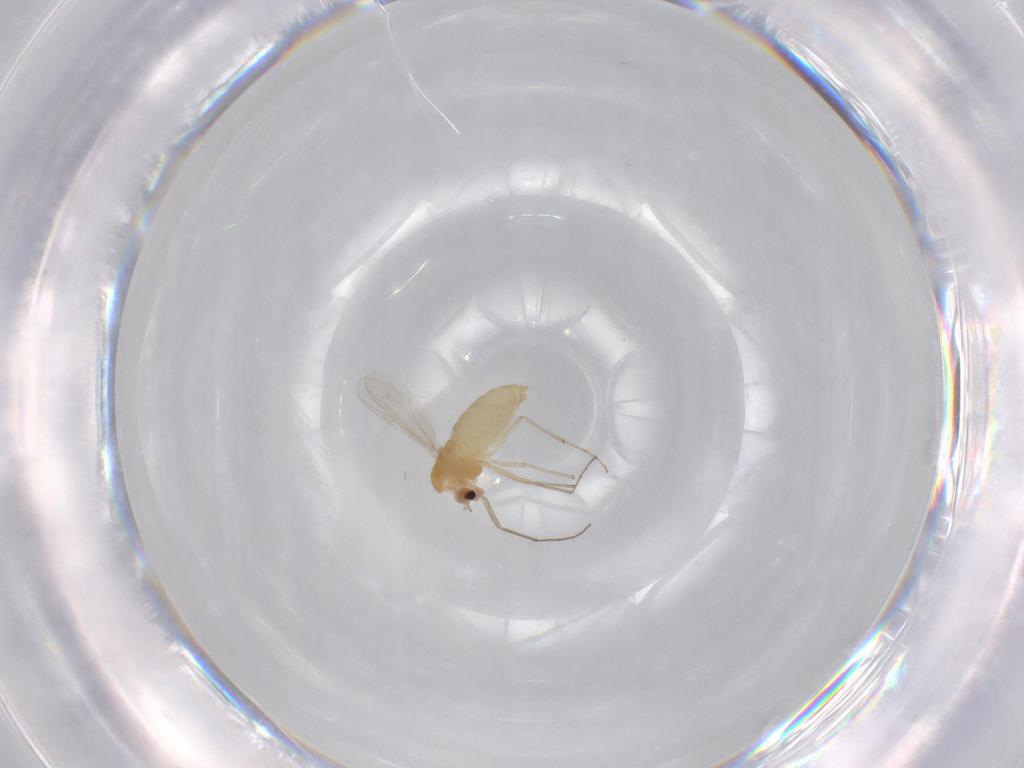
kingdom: Animalia
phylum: Arthropoda
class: Insecta
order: Diptera
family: Chironomidae
